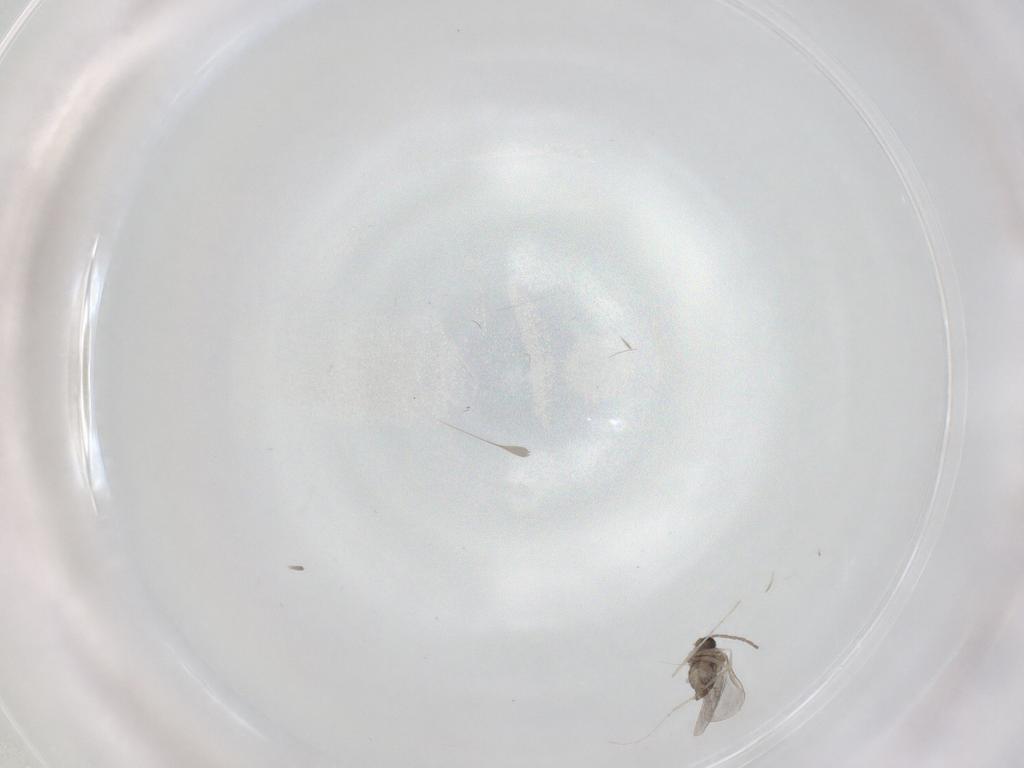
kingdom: Animalia
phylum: Arthropoda
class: Insecta
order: Diptera
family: Cecidomyiidae
